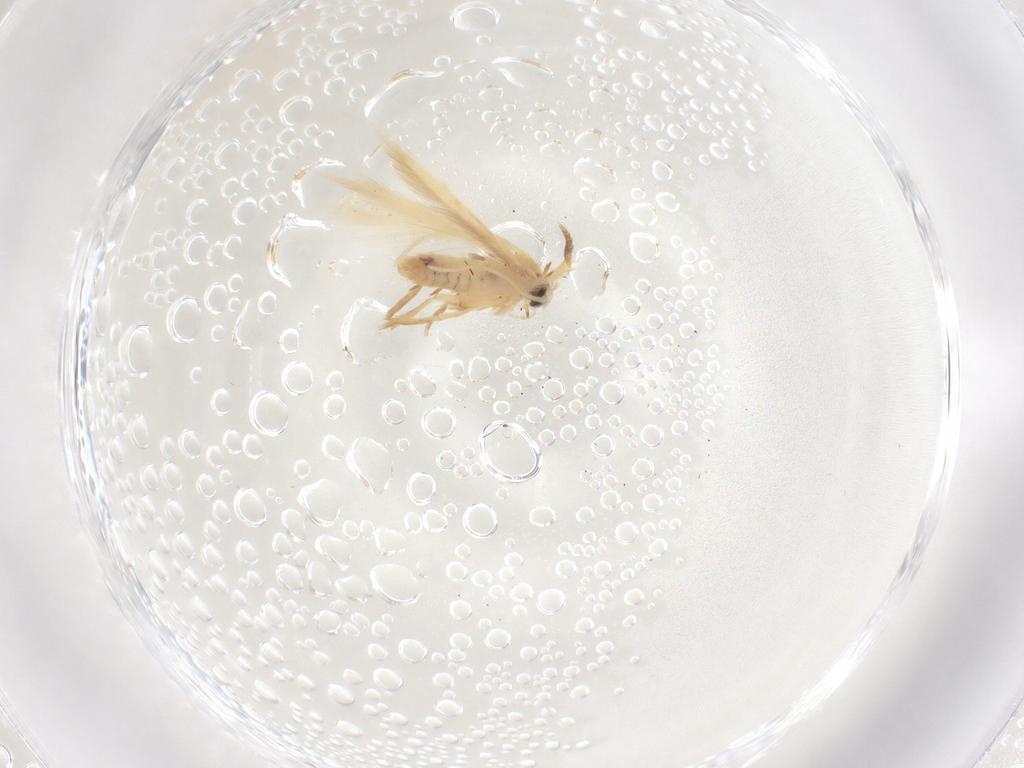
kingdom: Animalia
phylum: Arthropoda
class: Insecta
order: Lepidoptera
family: Nepticulidae
